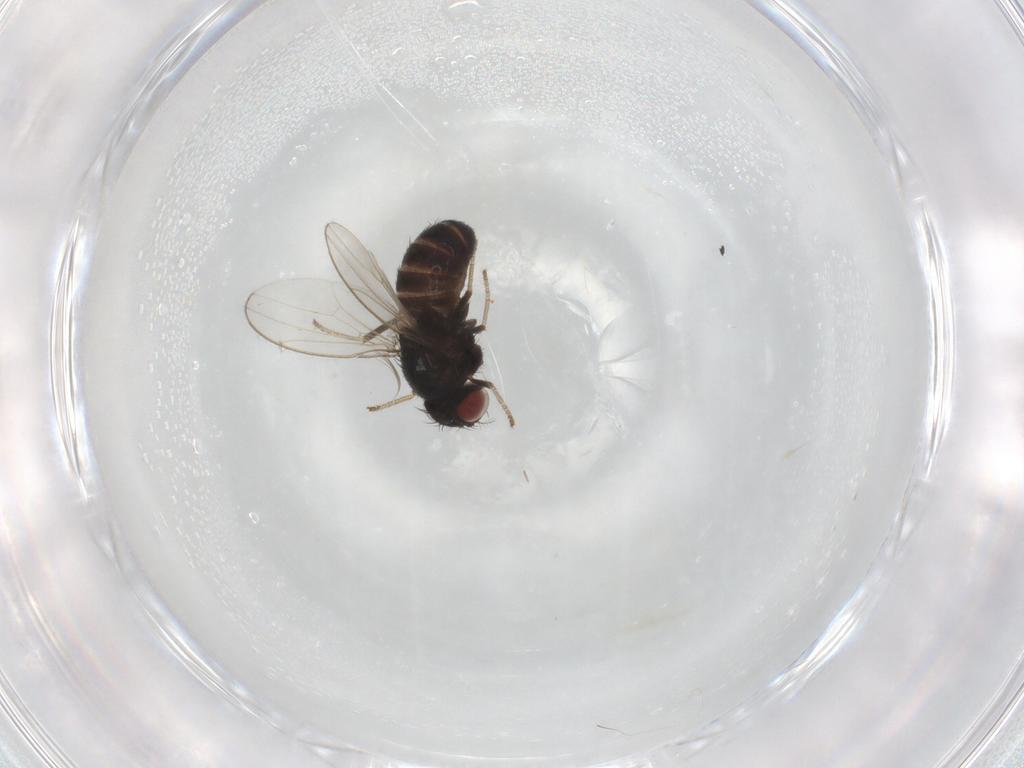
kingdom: Animalia
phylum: Arthropoda
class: Insecta
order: Diptera
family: Drosophilidae
